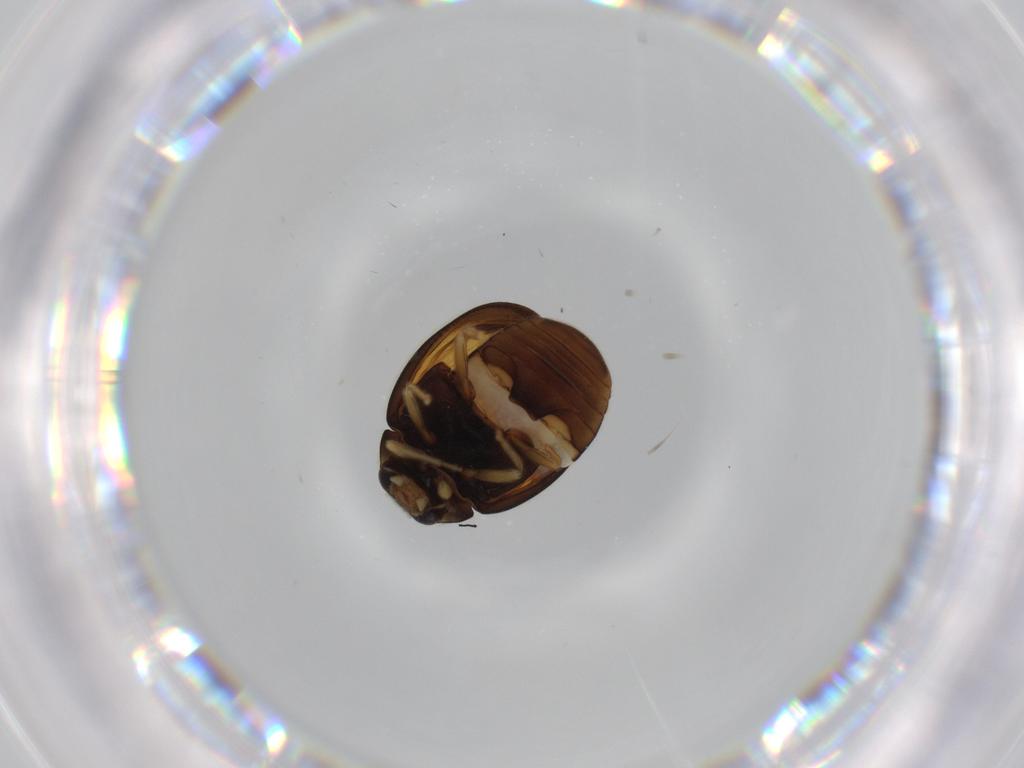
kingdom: Animalia
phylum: Arthropoda
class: Insecta
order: Coleoptera
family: Coccinellidae
